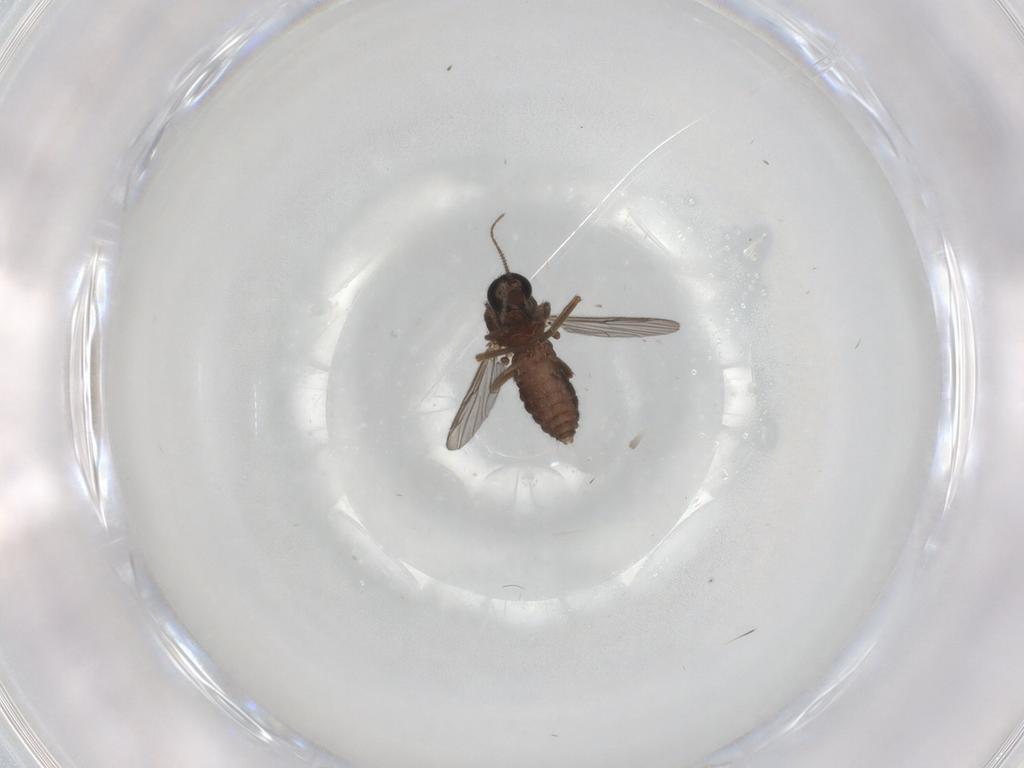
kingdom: Animalia
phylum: Arthropoda
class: Insecta
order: Diptera
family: Ceratopogonidae
